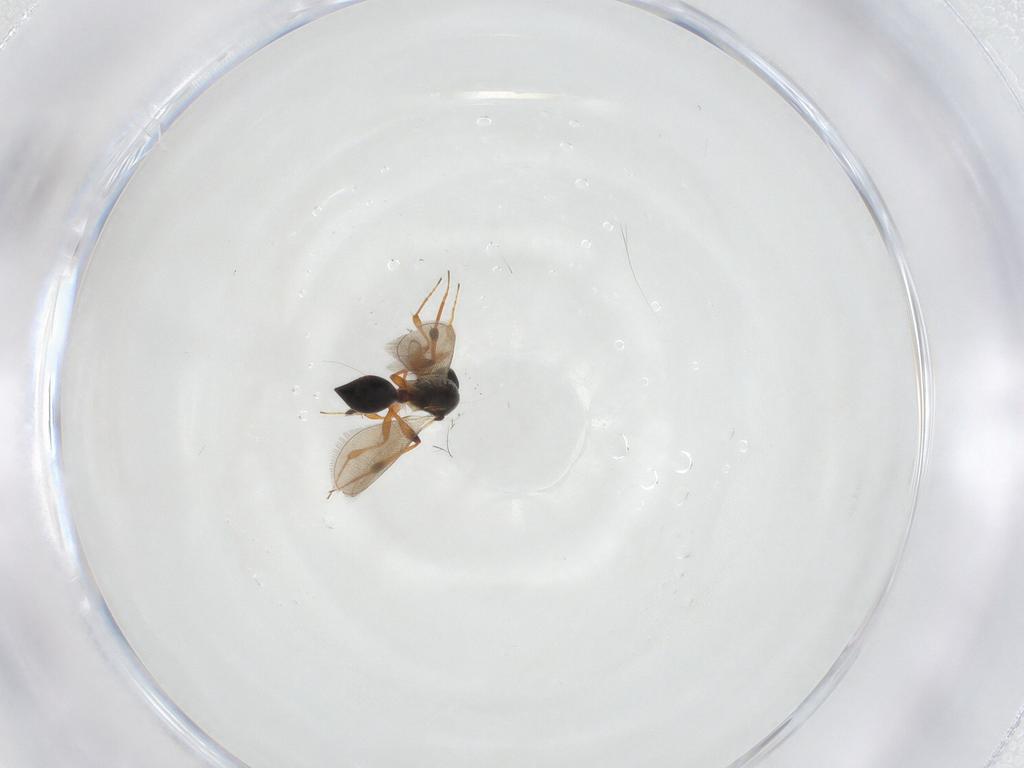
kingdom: Animalia
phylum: Arthropoda
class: Insecta
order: Hymenoptera
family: Platygastridae
